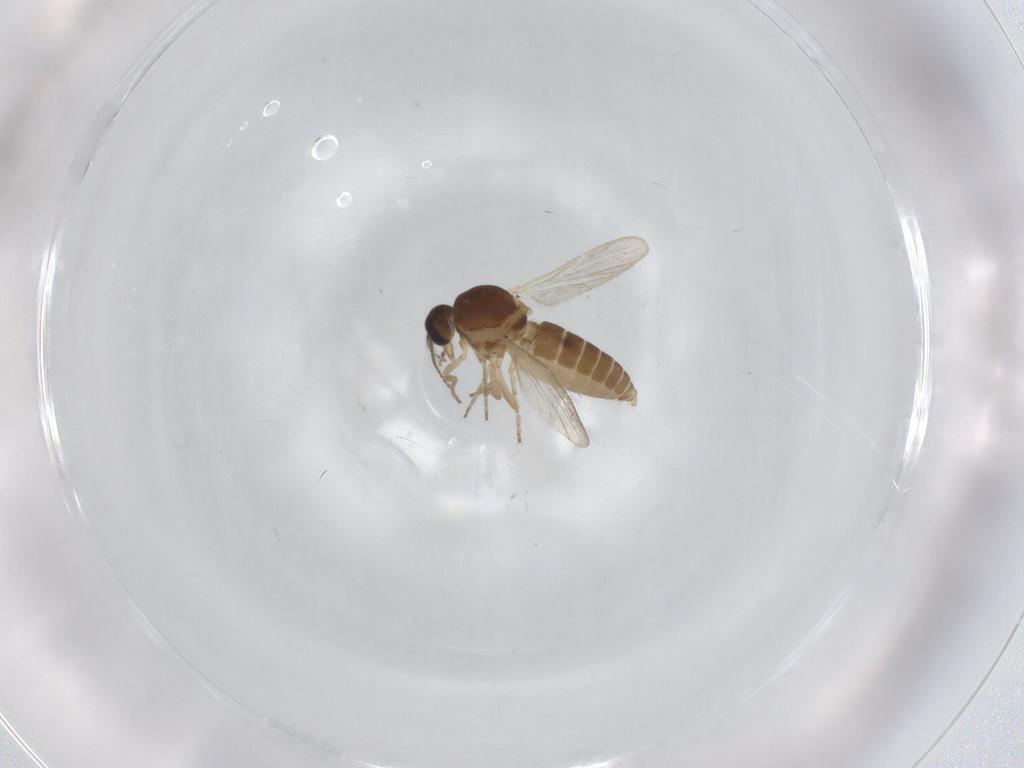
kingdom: Animalia
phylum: Arthropoda
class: Insecta
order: Diptera
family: Ceratopogonidae
